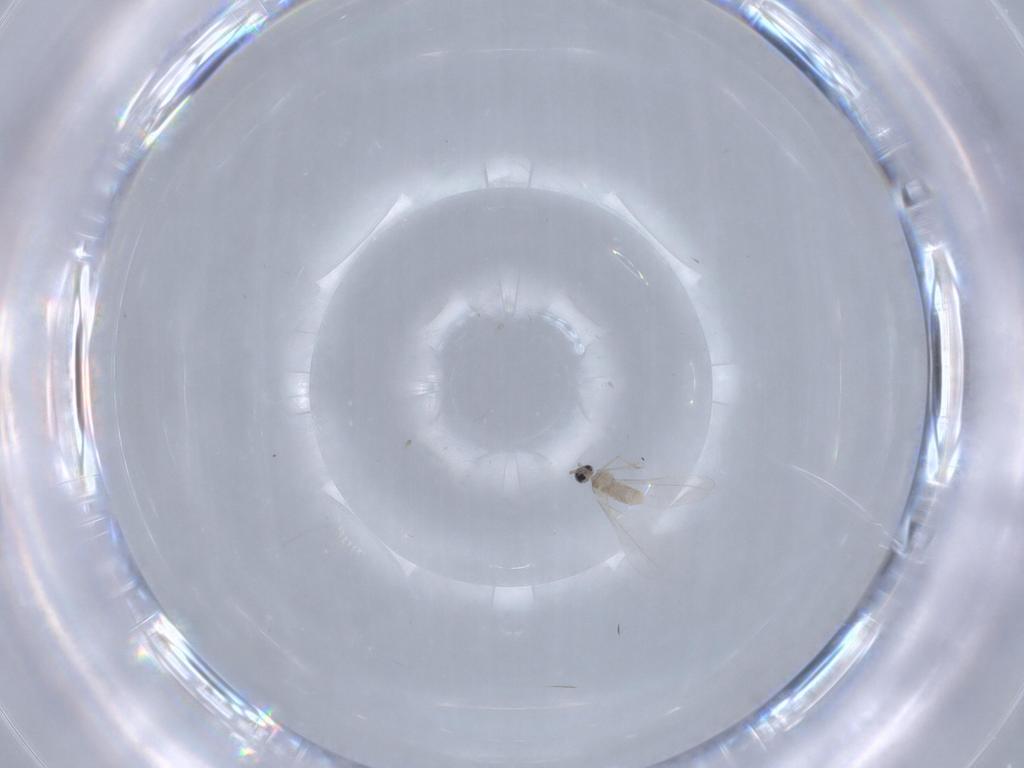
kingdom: Animalia
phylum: Arthropoda
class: Insecta
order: Diptera
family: Cecidomyiidae
